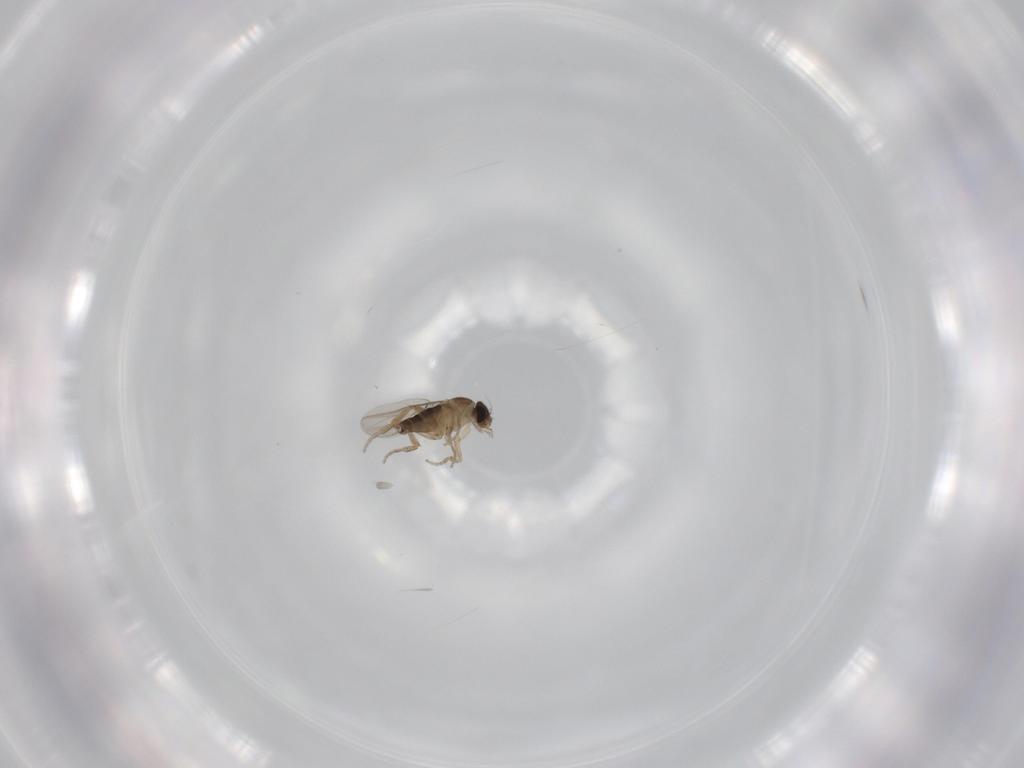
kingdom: Animalia
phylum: Arthropoda
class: Insecta
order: Diptera
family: Phoridae
